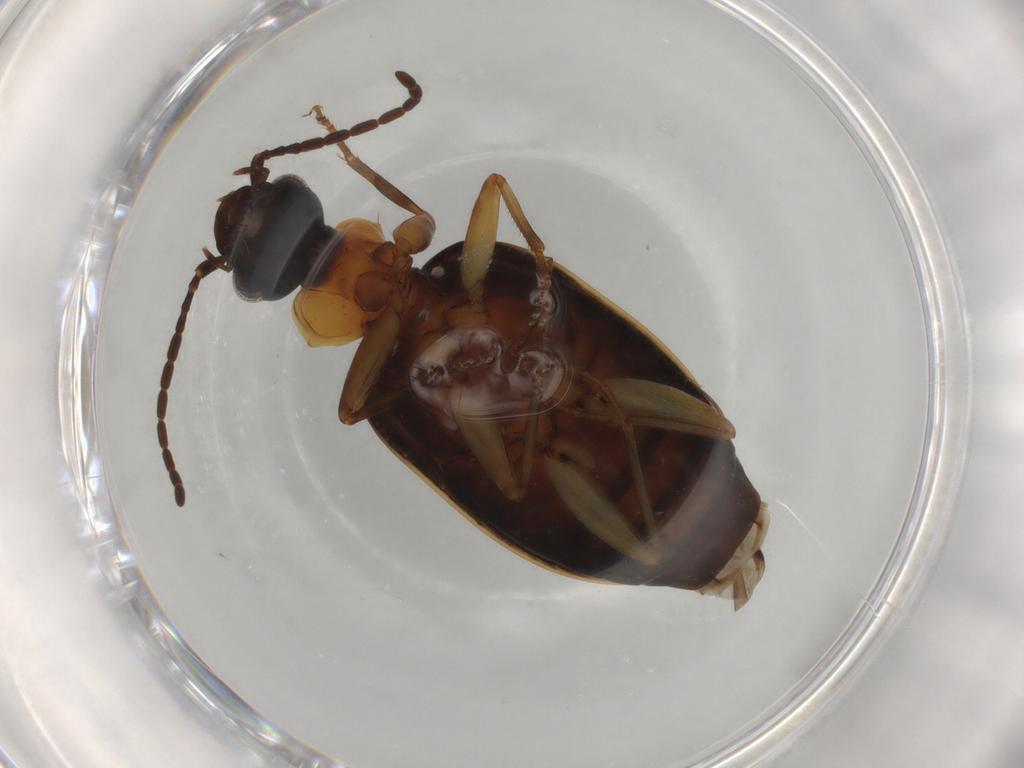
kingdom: Animalia
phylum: Arthropoda
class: Insecta
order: Coleoptera
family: Carabidae
